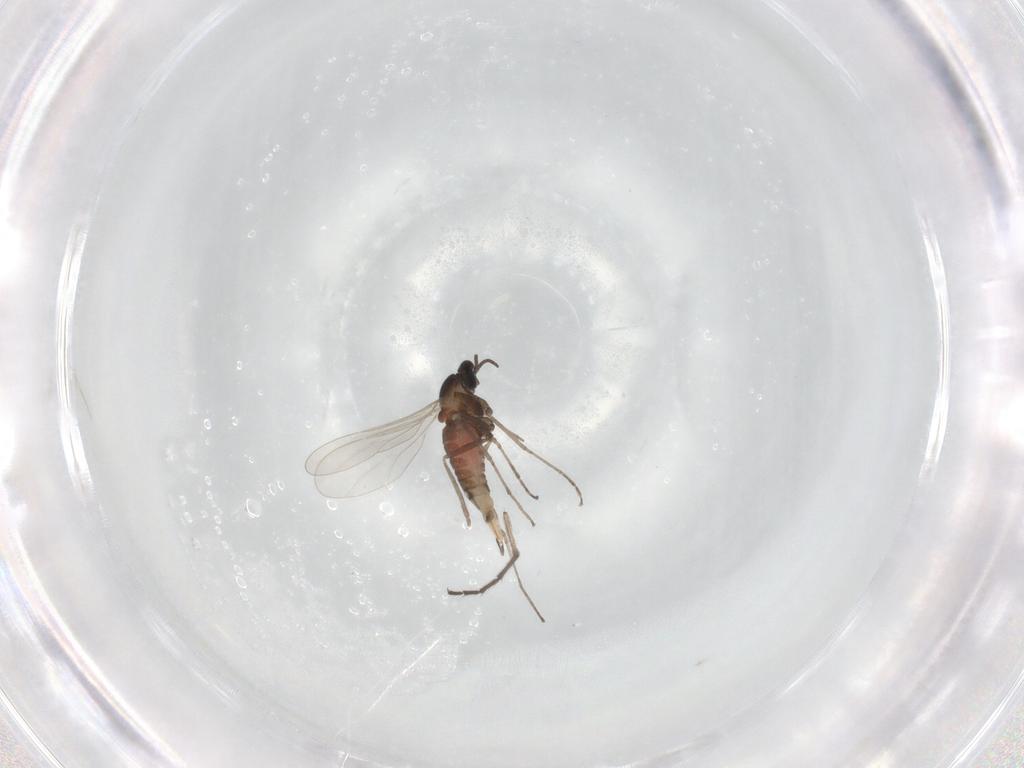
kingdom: Animalia
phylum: Arthropoda
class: Insecta
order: Diptera
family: Cecidomyiidae
